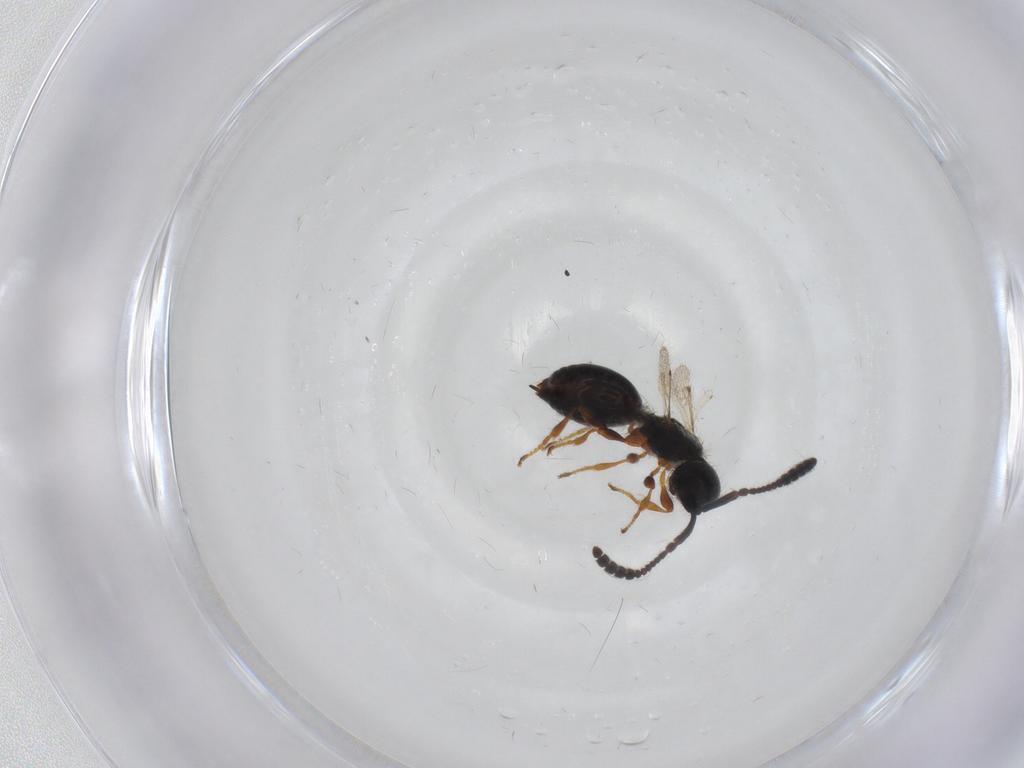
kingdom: Animalia
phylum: Arthropoda
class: Insecta
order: Hymenoptera
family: Diapriidae
